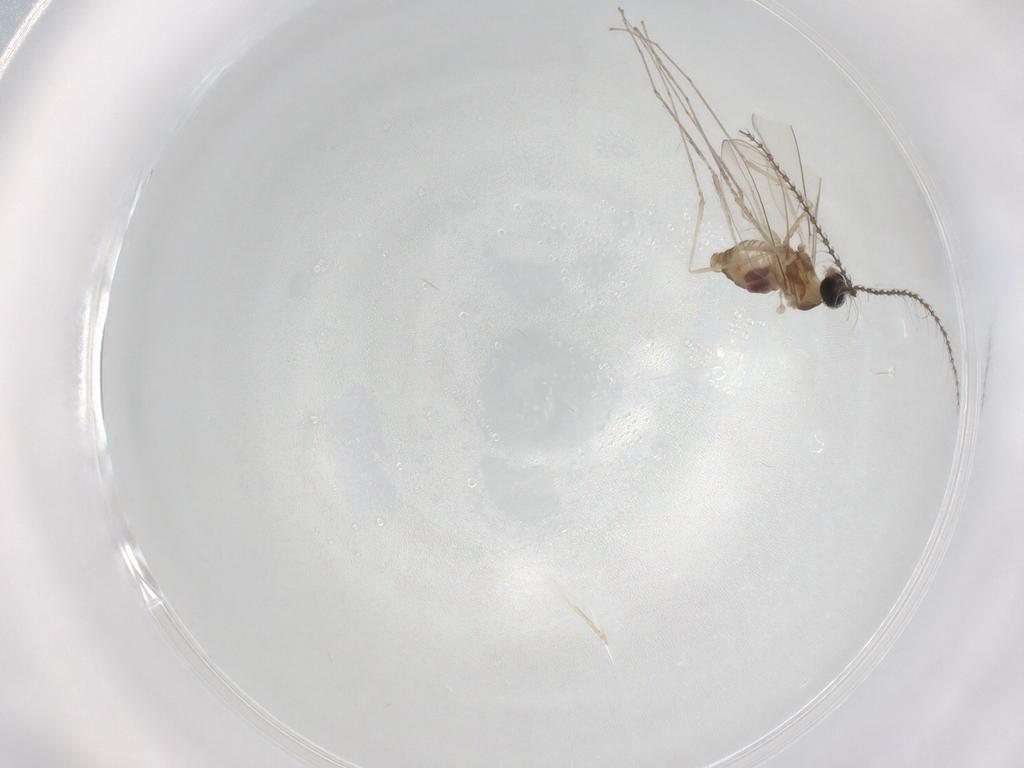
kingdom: Animalia
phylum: Arthropoda
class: Insecta
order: Diptera
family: Cecidomyiidae
